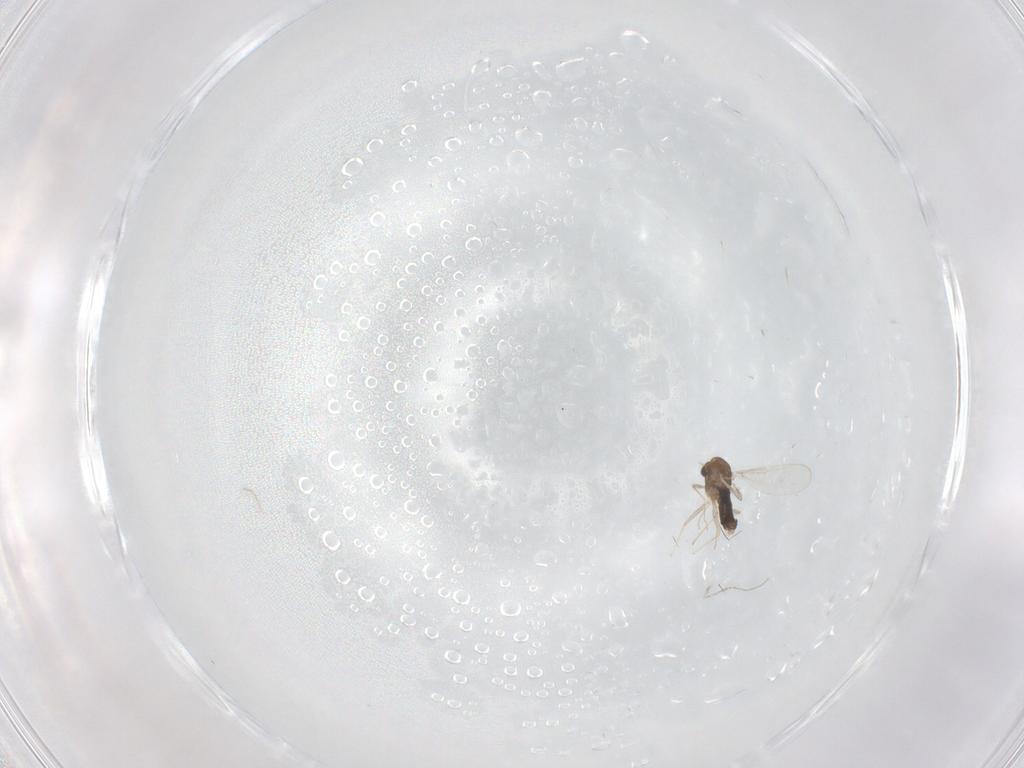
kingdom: Animalia
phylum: Arthropoda
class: Insecta
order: Diptera
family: Chironomidae
